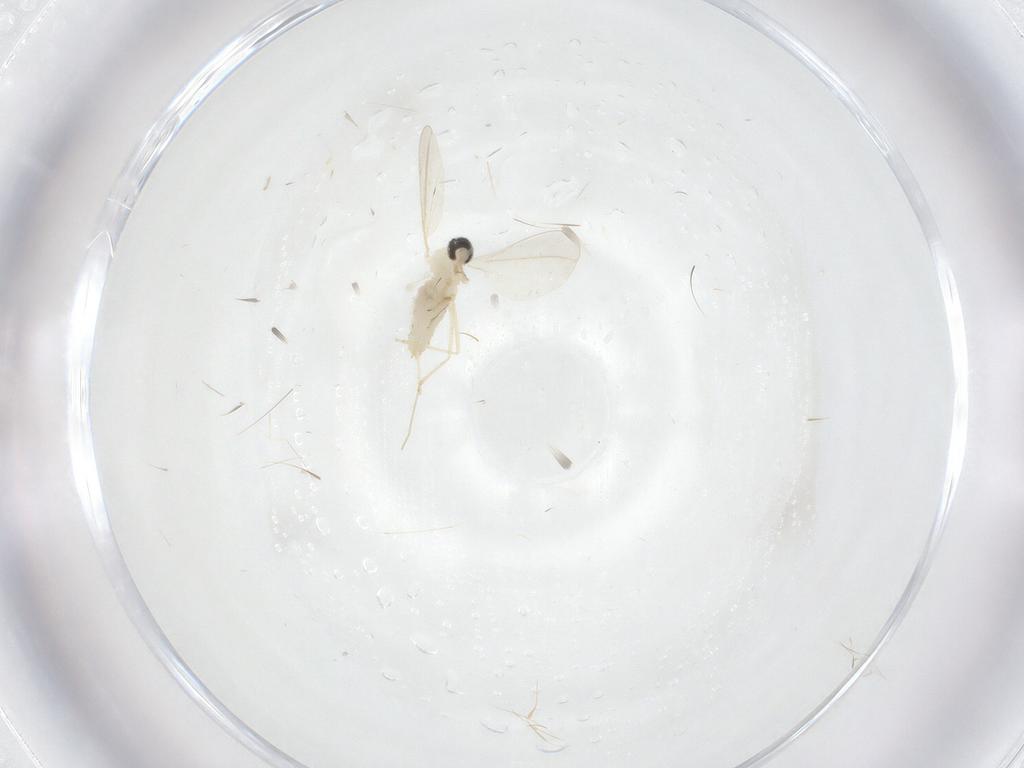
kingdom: Animalia
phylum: Arthropoda
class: Insecta
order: Diptera
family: Cecidomyiidae
